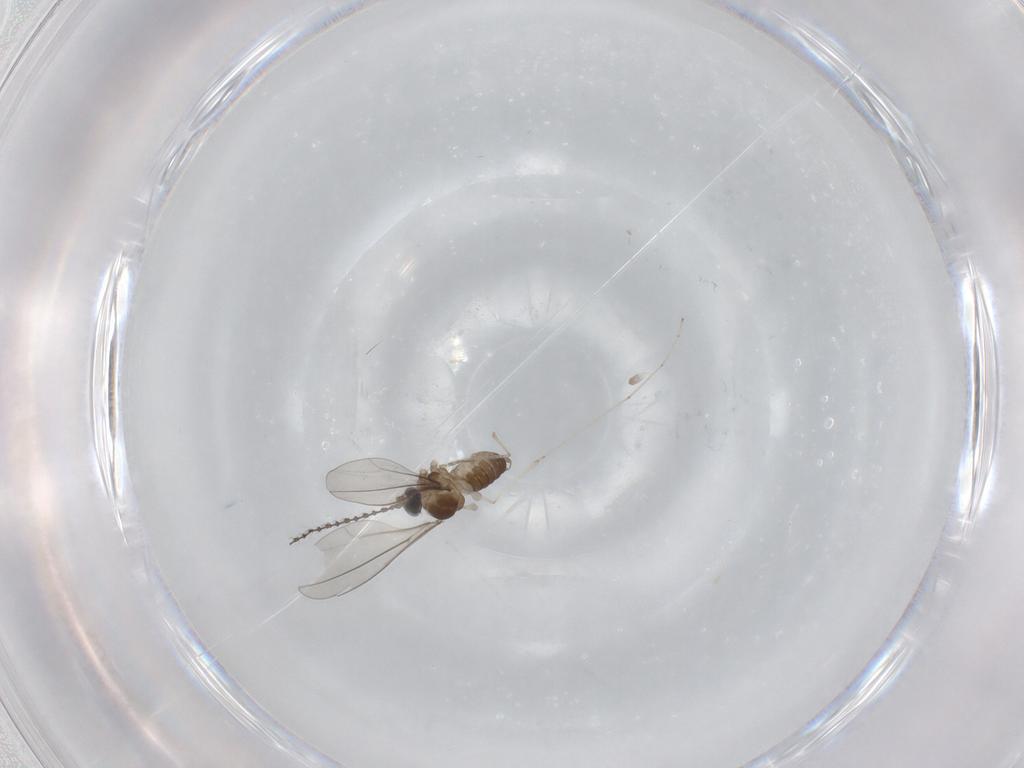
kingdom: Animalia
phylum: Arthropoda
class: Insecta
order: Diptera
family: Cecidomyiidae
